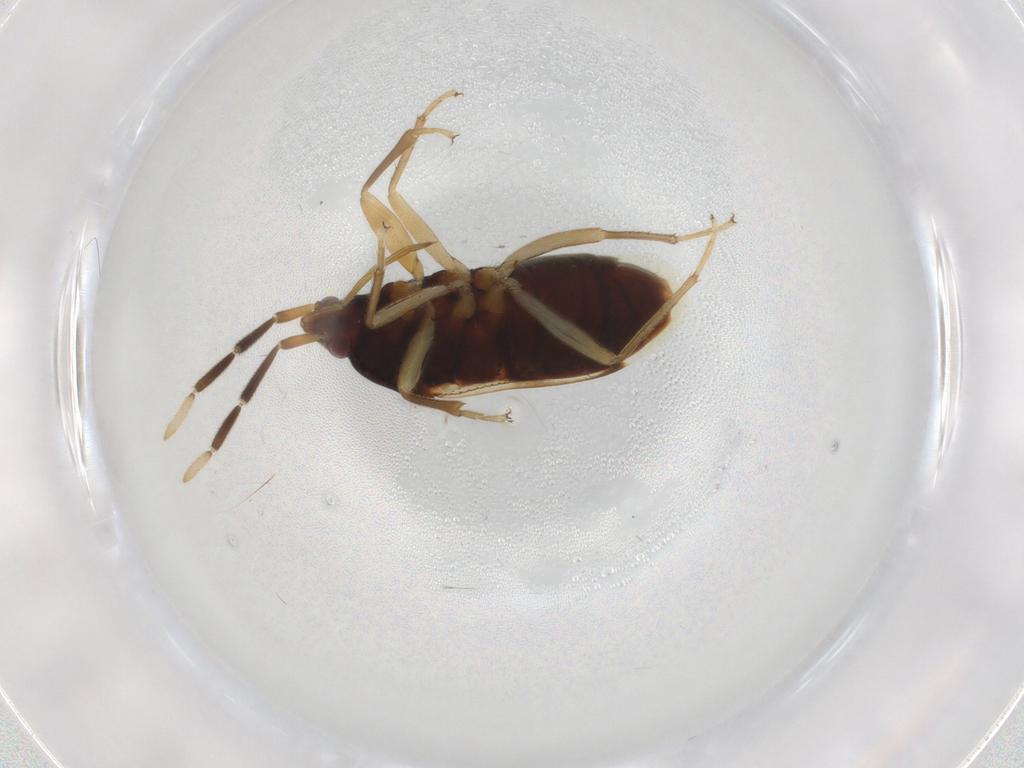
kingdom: Animalia
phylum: Arthropoda
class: Insecta
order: Hemiptera
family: Rhyparochromidae
